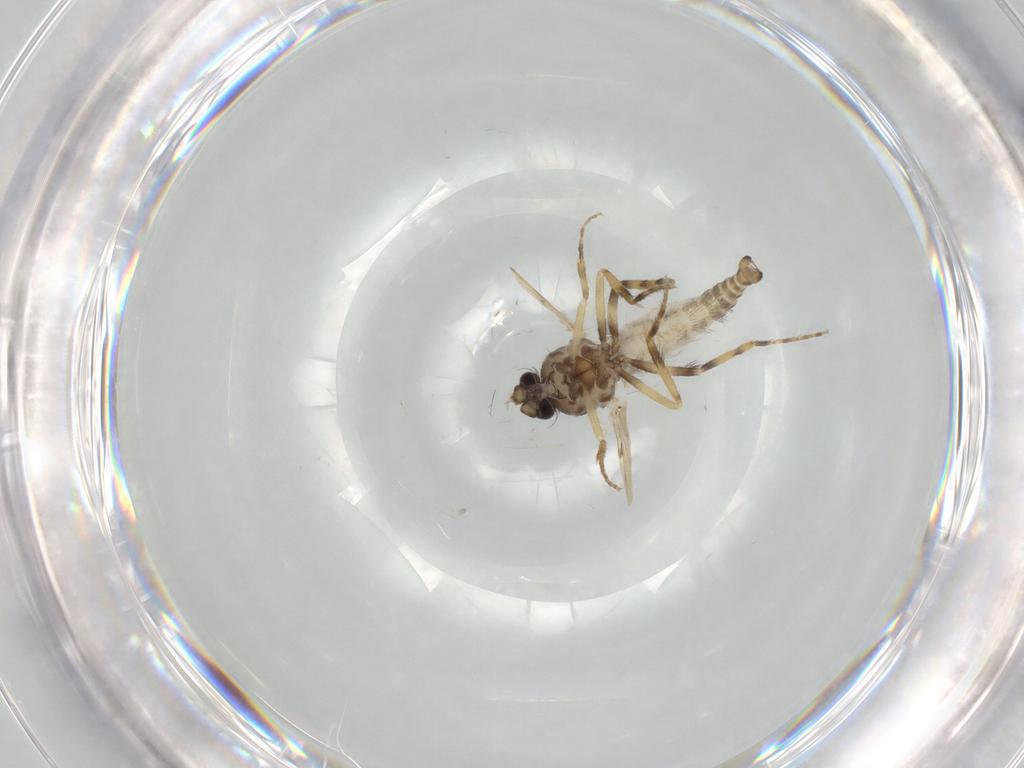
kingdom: Animalia
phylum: Arthropoda
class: Insecta
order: Diptera
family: Ceratopogonidae
